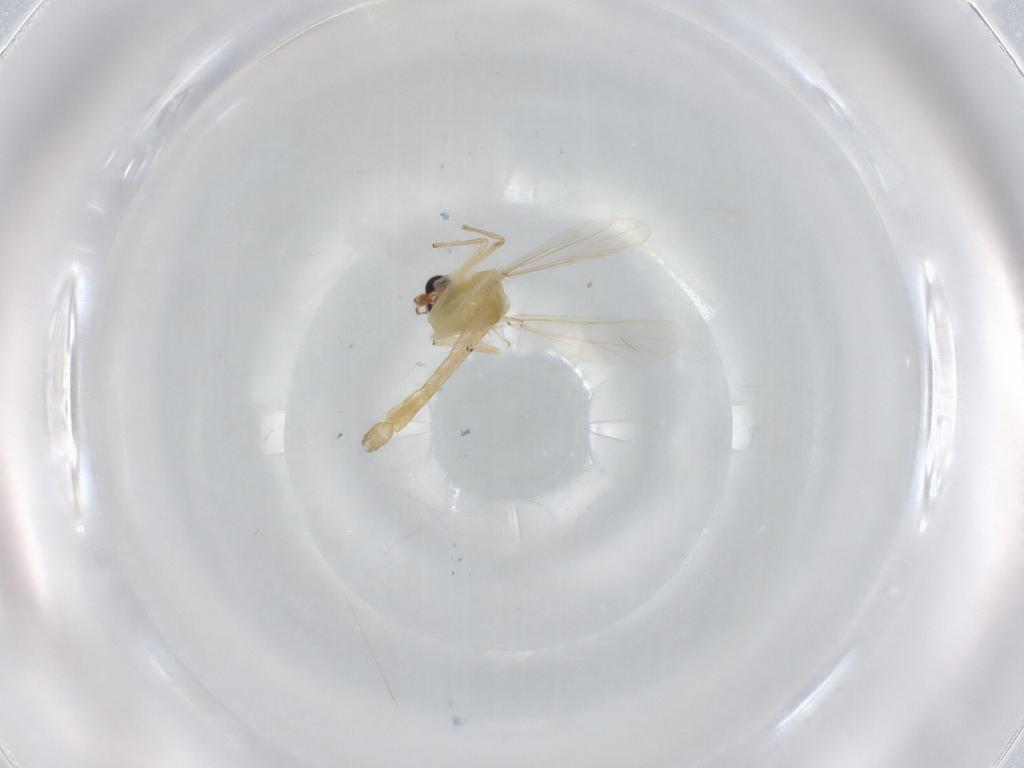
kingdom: Animalia
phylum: Arthropoda
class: Insecta
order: Diptera
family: Chironomidae
